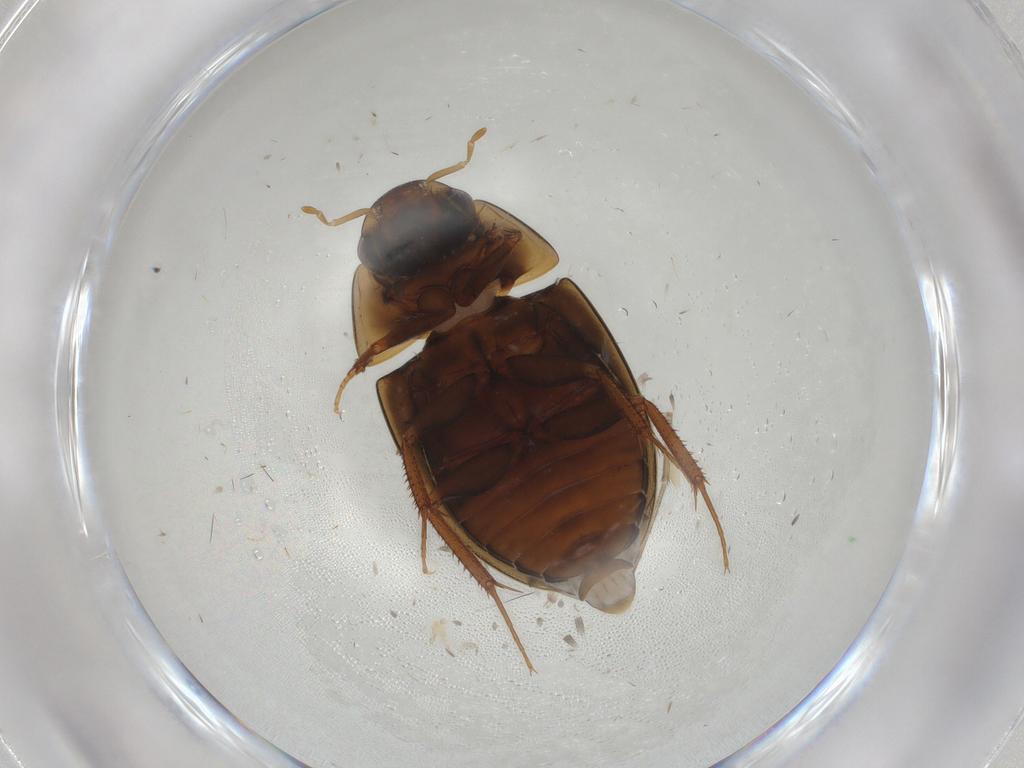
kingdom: Animalia
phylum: Arthropoda
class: Insecta
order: Coleoptera
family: Hydrophilidae
